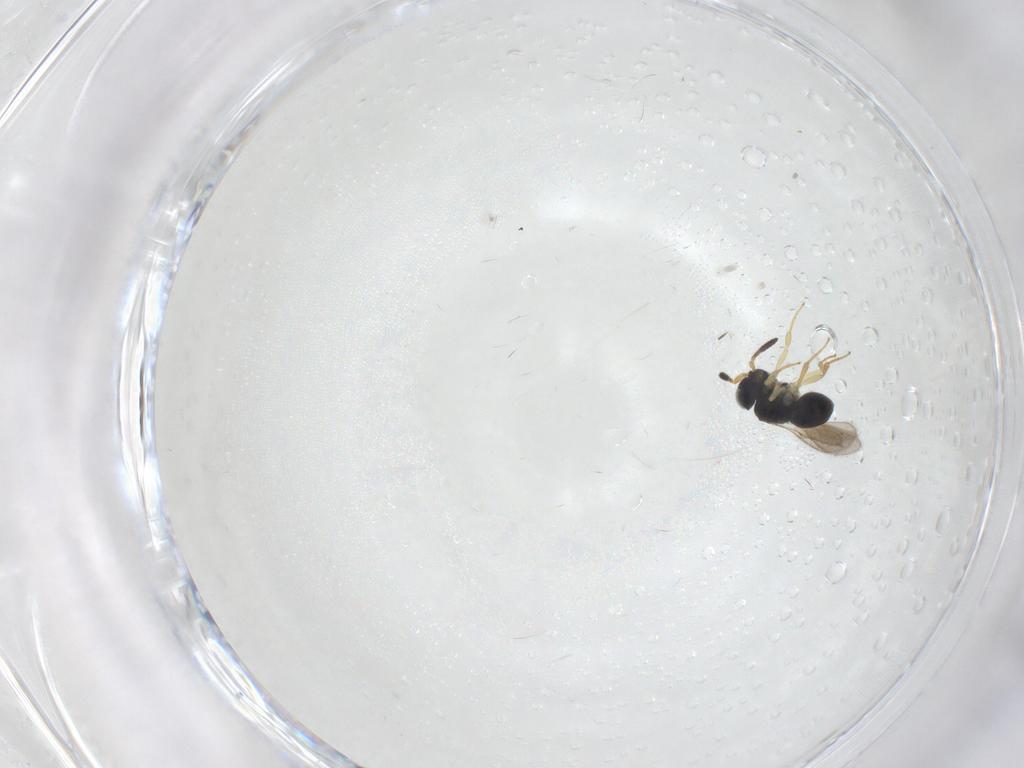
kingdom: Animalia
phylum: Arthropoda
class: Insecta
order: Hymenoptera
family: Scelionidae
